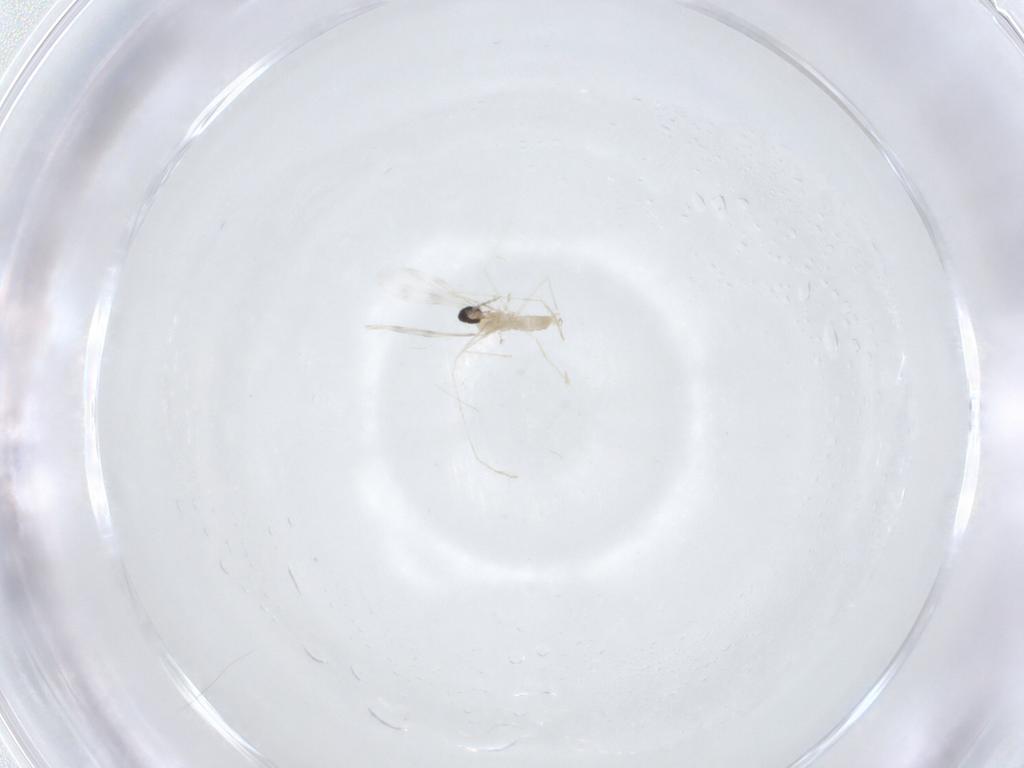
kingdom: Animalia
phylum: Arthropoda
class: Insecta
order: Diptera
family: Cecidomyiidae
